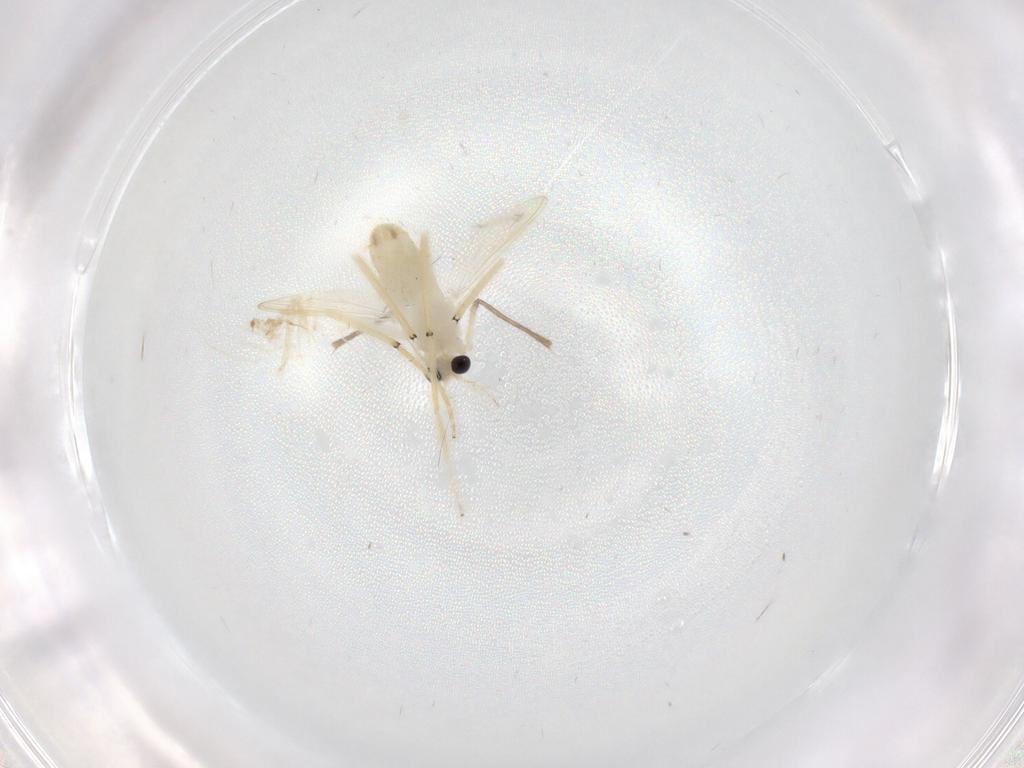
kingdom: Animalia
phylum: Arthropoda
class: Insecta
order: Diptera
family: Chironomidae
